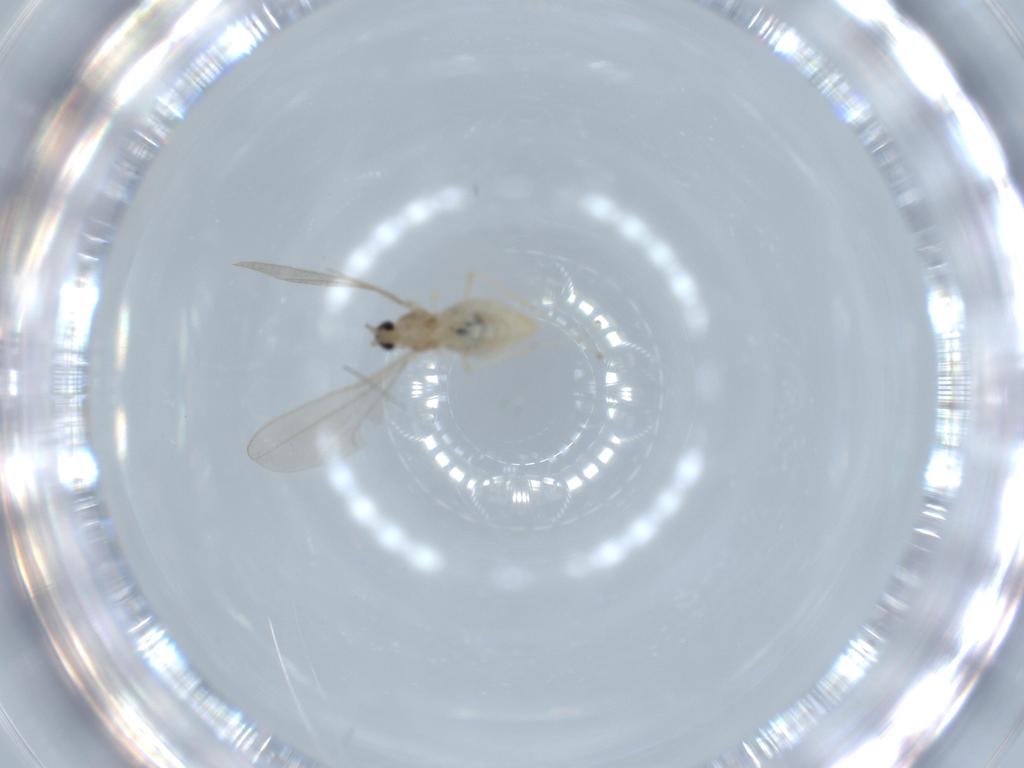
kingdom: Animalia
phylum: Arthropoda
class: Insecta
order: Diptera
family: Cecidomyiidae
